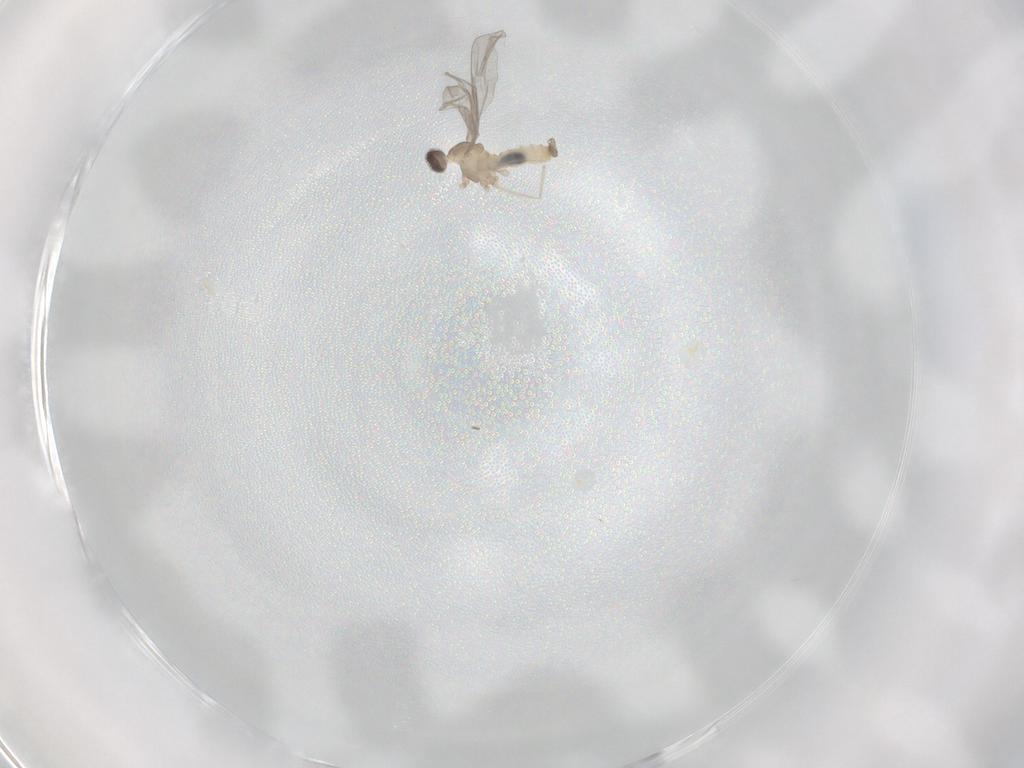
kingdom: Animalia
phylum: Arthropoda
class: Insecta
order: Diptera
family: Cecidomyiidae
